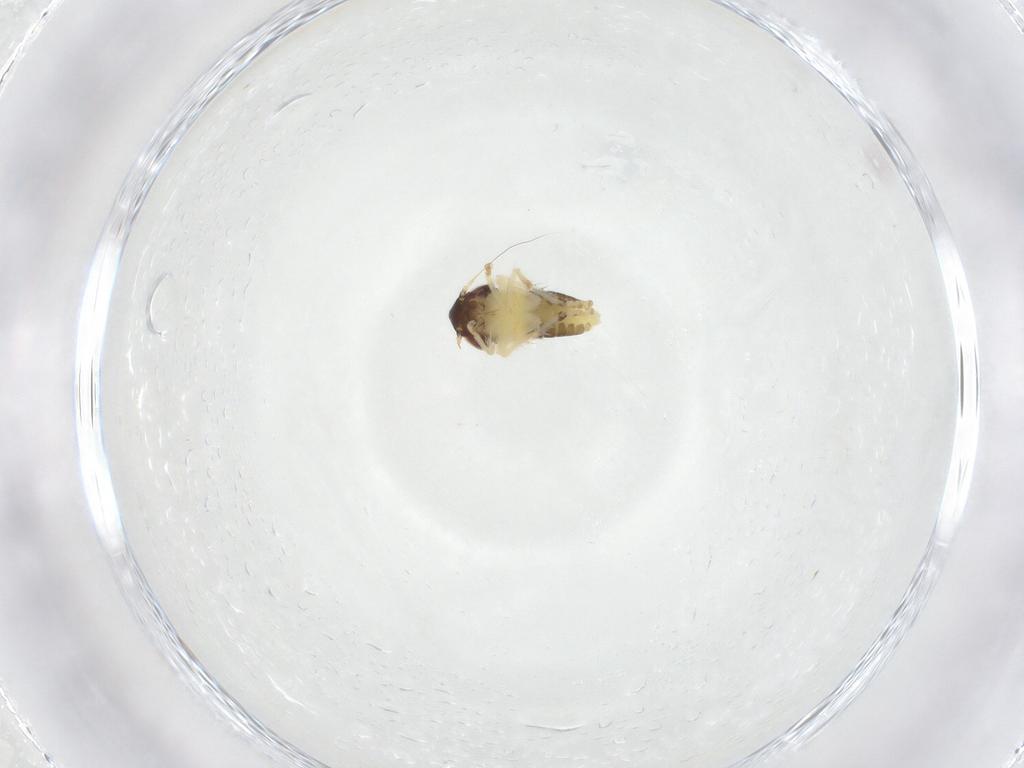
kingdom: Animalia
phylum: Arthropoda
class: Insecta
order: Hemiptera
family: Cicadellidae
